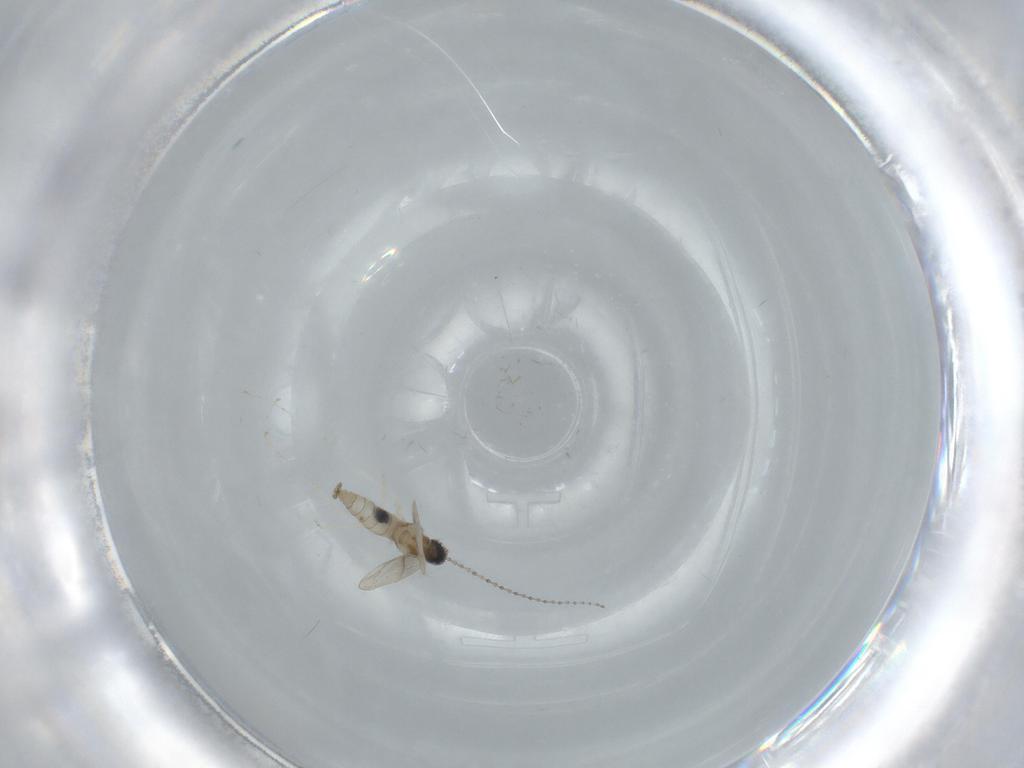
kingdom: Animalia
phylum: Arthropoda
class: Insecta
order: Diptera
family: Cecidomyiidae
